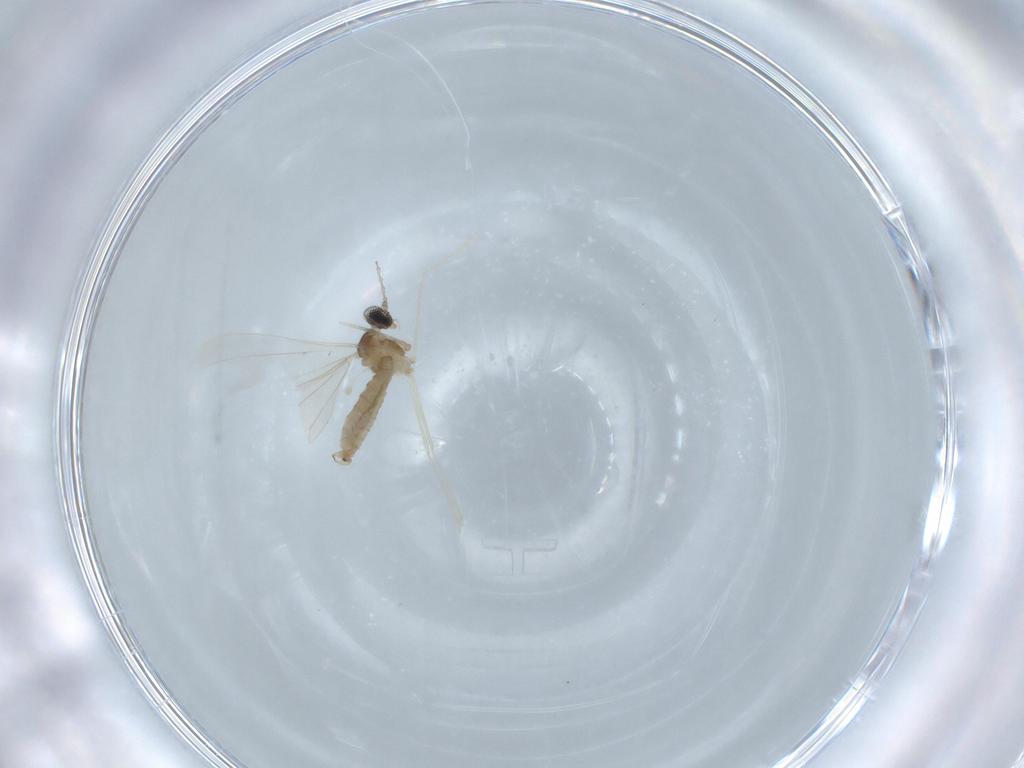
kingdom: Animalia
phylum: Arthropoda
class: Insecta
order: Diptera
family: Cecidomyiidae
